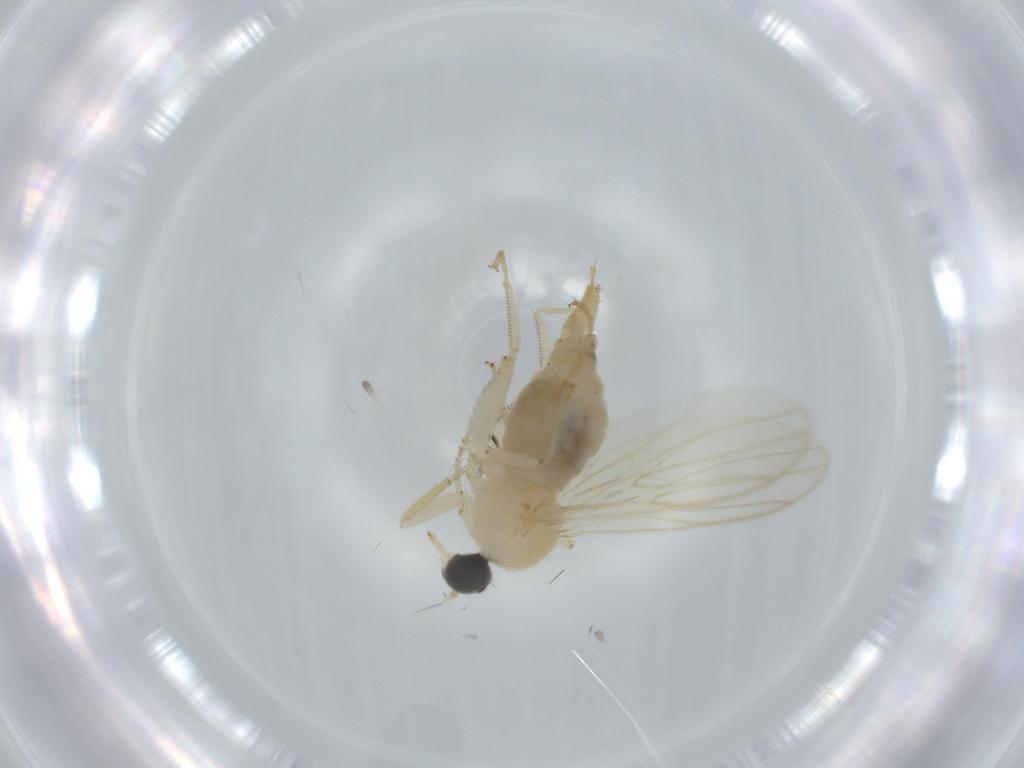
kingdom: Animalia
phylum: Arthropoda
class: Insecta
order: Diptera
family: Hybotidae
